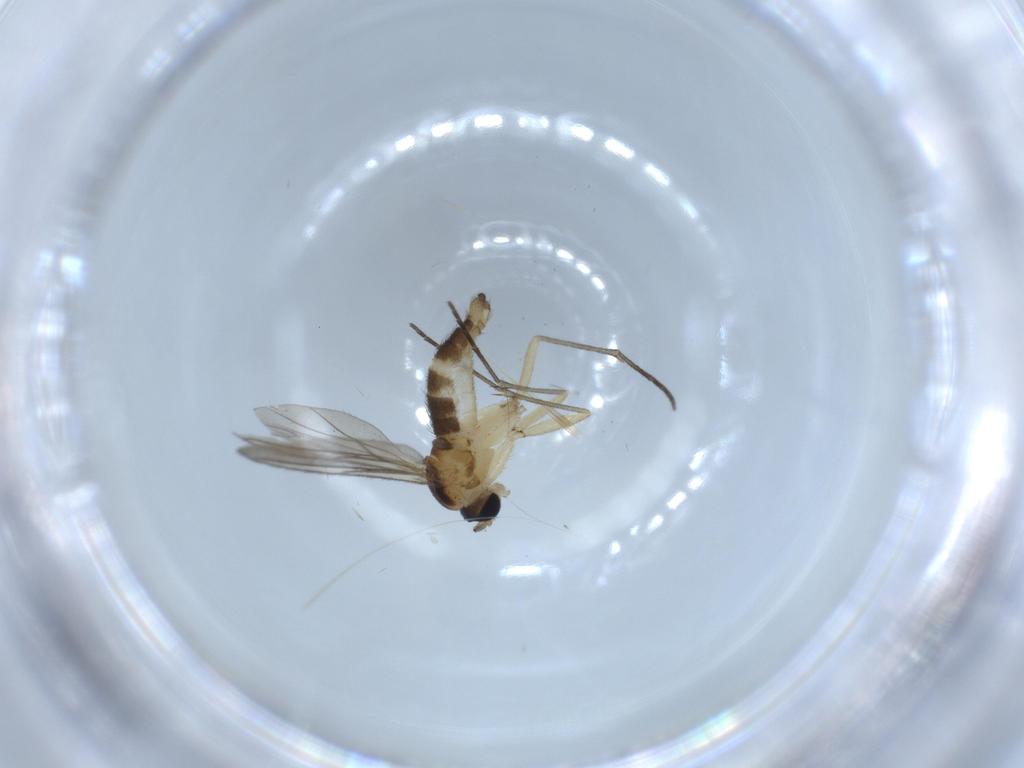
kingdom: Animalia
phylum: Arthropoda
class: Insecta
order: Diptera
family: Sciaridae
